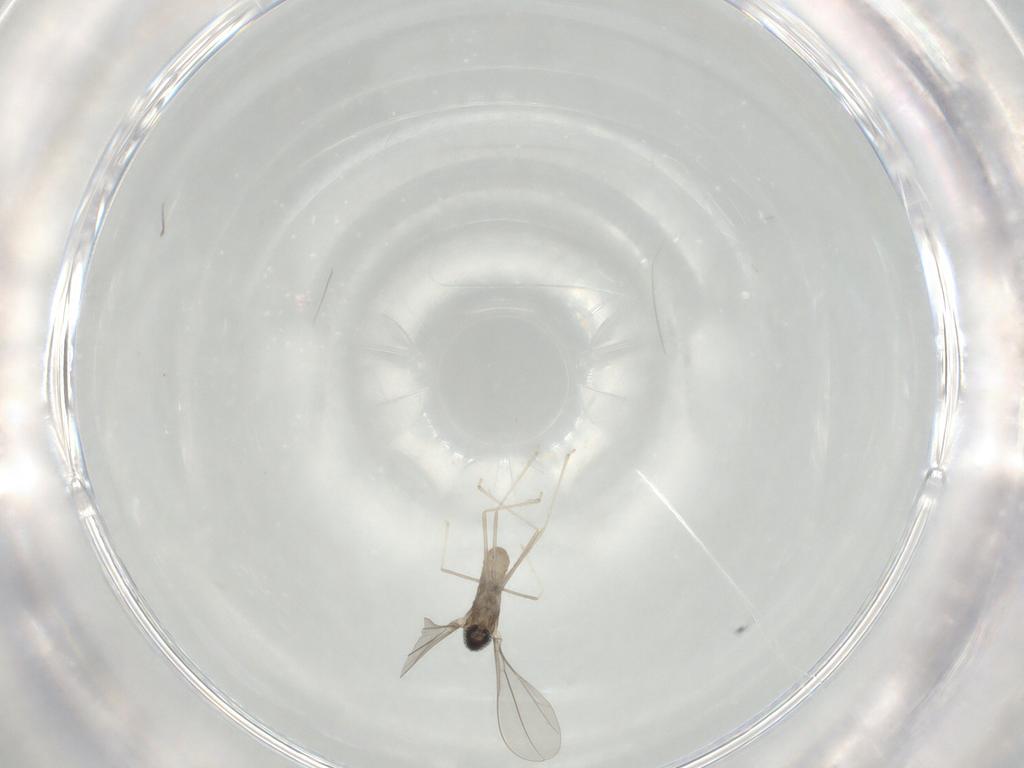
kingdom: Animalia
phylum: Arthropoda
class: Insecta
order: Diptera
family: Cecidomyiidae
